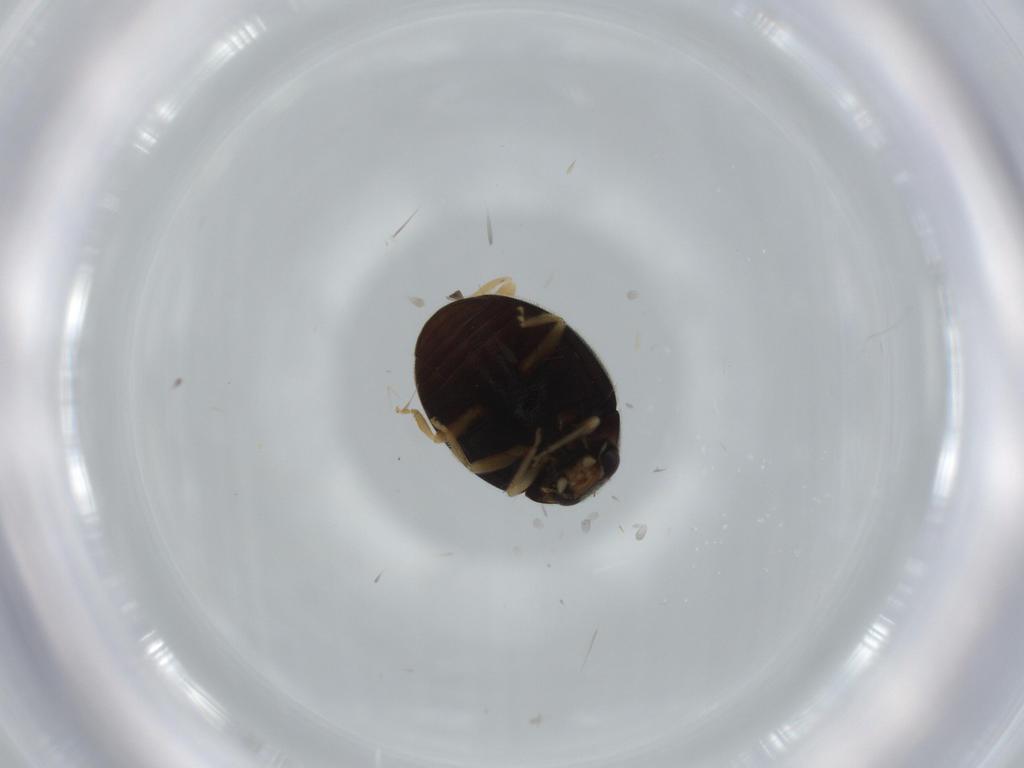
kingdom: Animalia
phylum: Arthropoda
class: Insecta
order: Coleoptera
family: Coccinellidae
